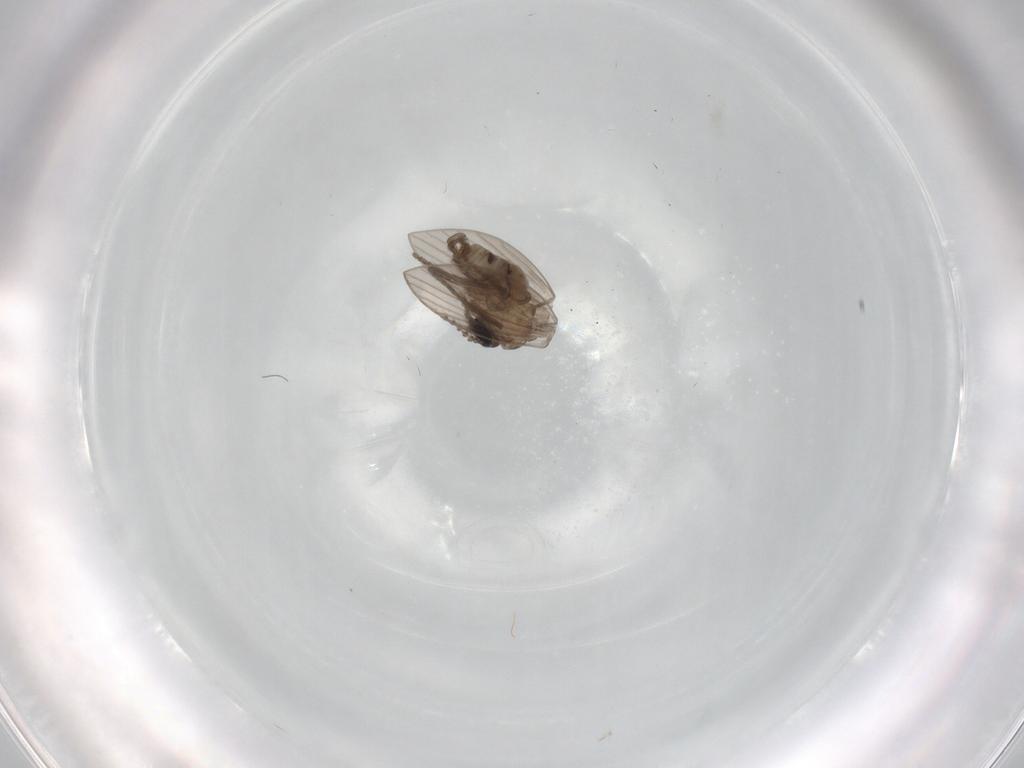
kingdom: Animalia
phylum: Arthropoda
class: Insecta
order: Diptera
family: Psychodidae
